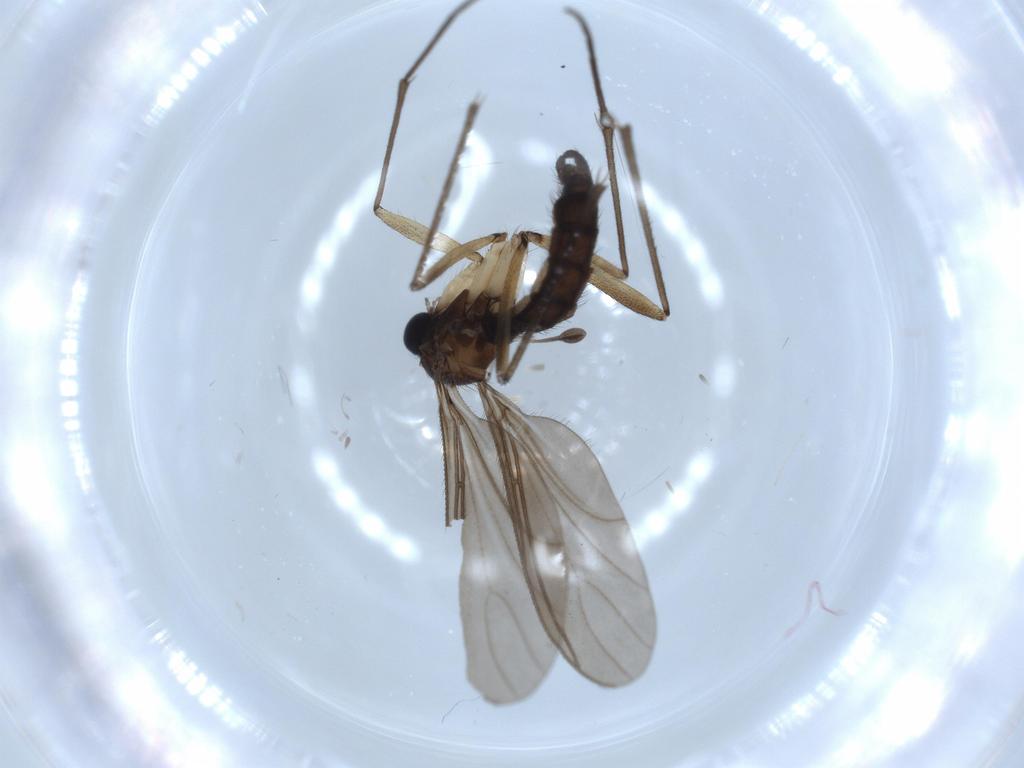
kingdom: Animalia
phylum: Arthropoda
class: Insecta
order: Diptera
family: Sciaridae
